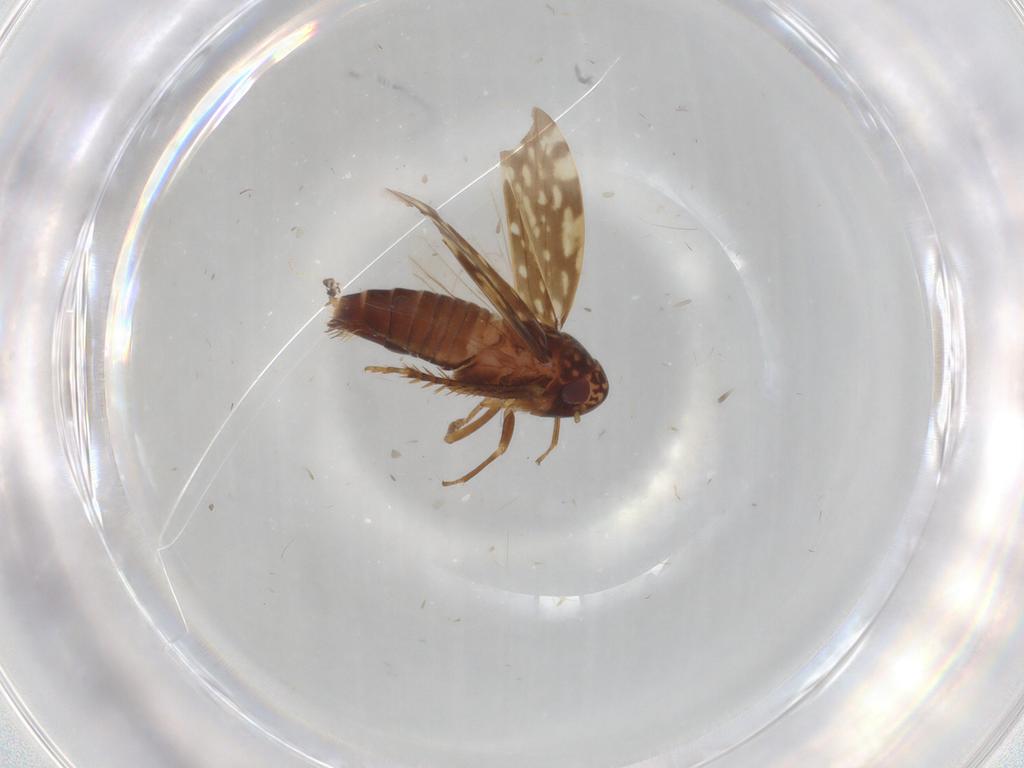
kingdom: Animalia
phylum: Arthropoda
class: Insecta
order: Hemiptera
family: Cicadellidae
